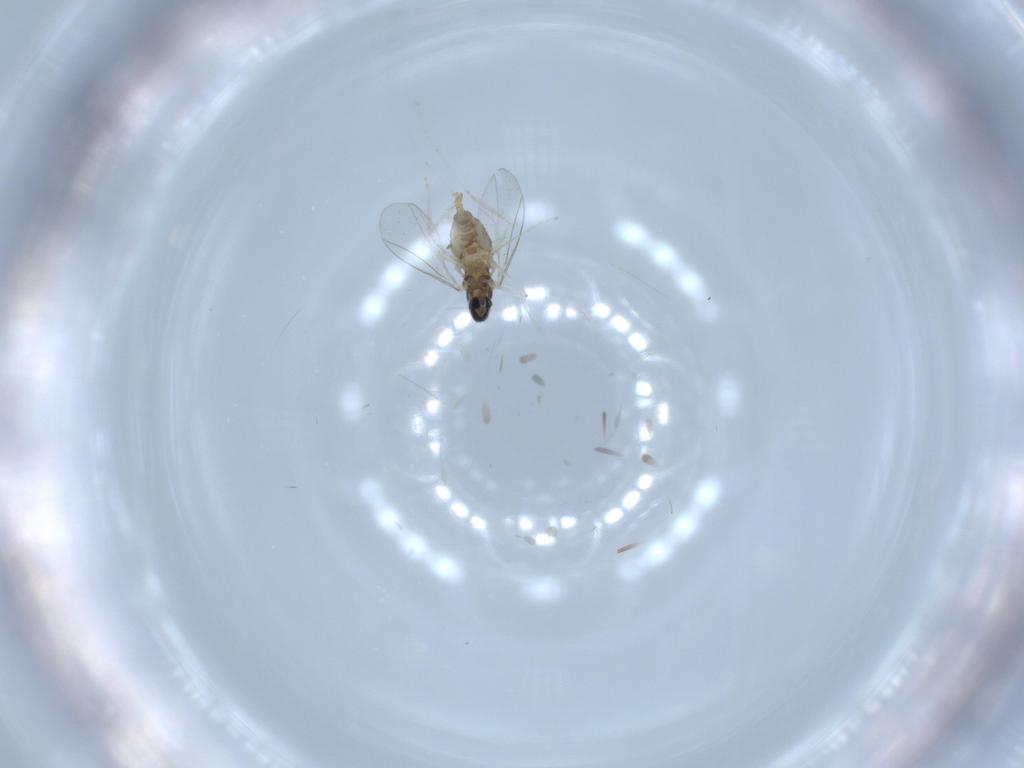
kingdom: Animalia
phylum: Arthropoda
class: Insecta
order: Diptera
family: Cecidomyiidae
